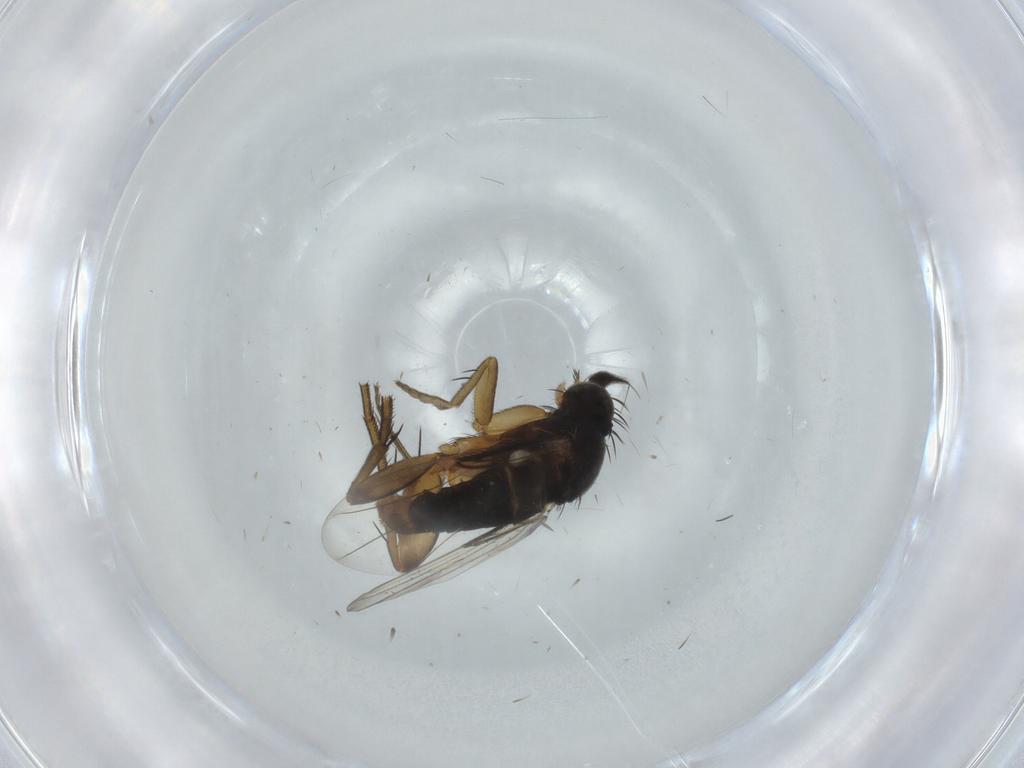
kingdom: Animalia
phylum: Arthropoda
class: Insecta
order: Diptera
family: Phoridae
